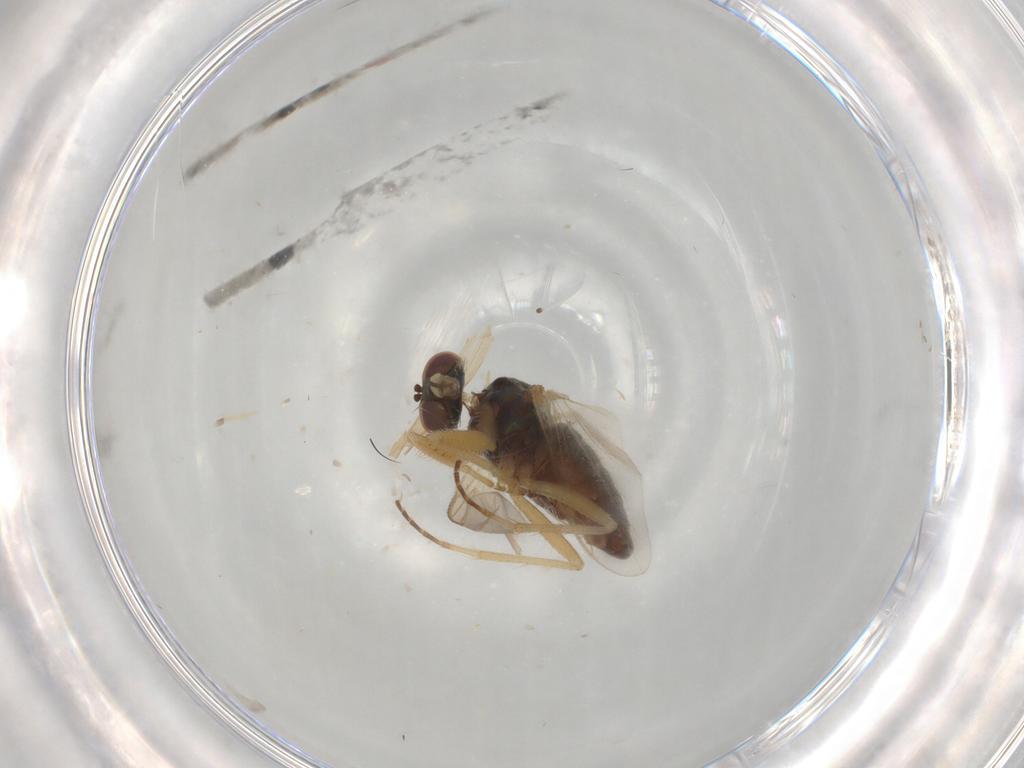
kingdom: Animalia
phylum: Arthropoda
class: Insecta
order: Diptera
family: Dolichopodidae
